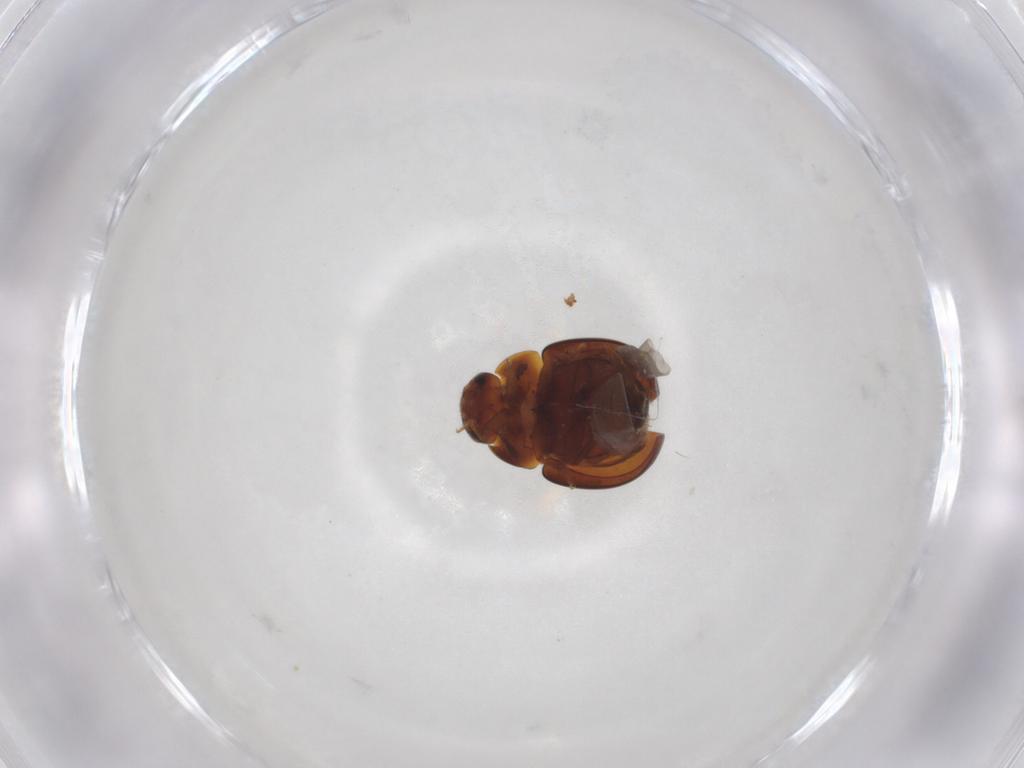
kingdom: Animalia
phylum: Arthropoda
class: Insecta
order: Coleoptera
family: Leiodidae
